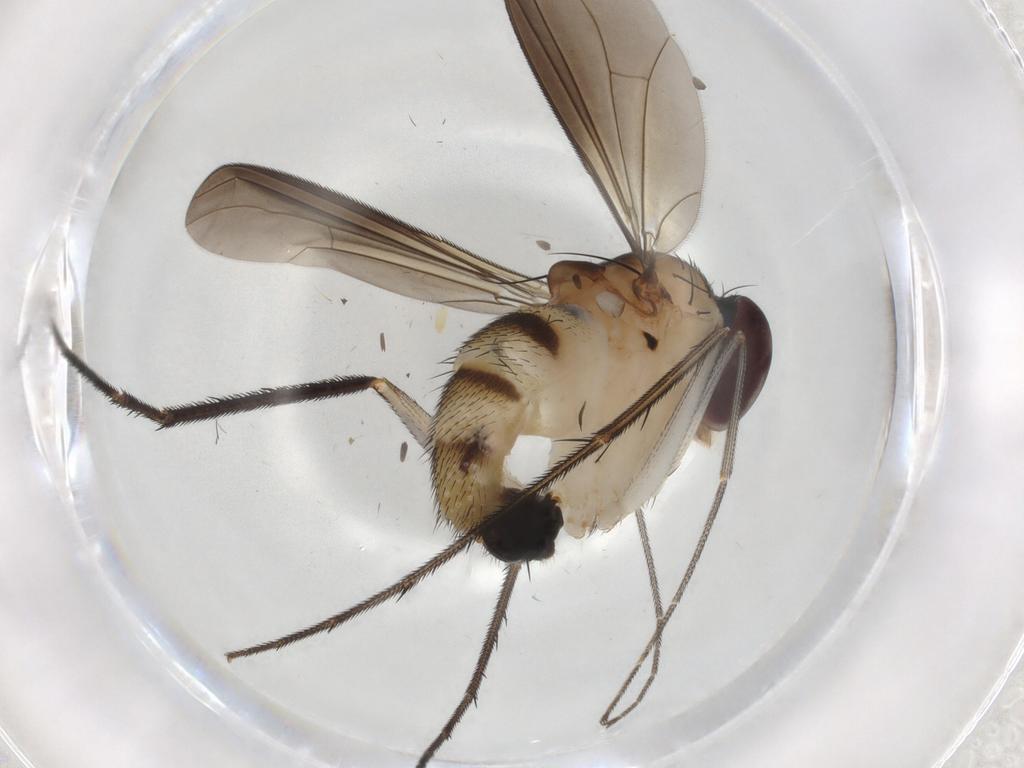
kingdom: Animalia
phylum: Arthropoda
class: Insecta
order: Diptera
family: Dolichopodidae
